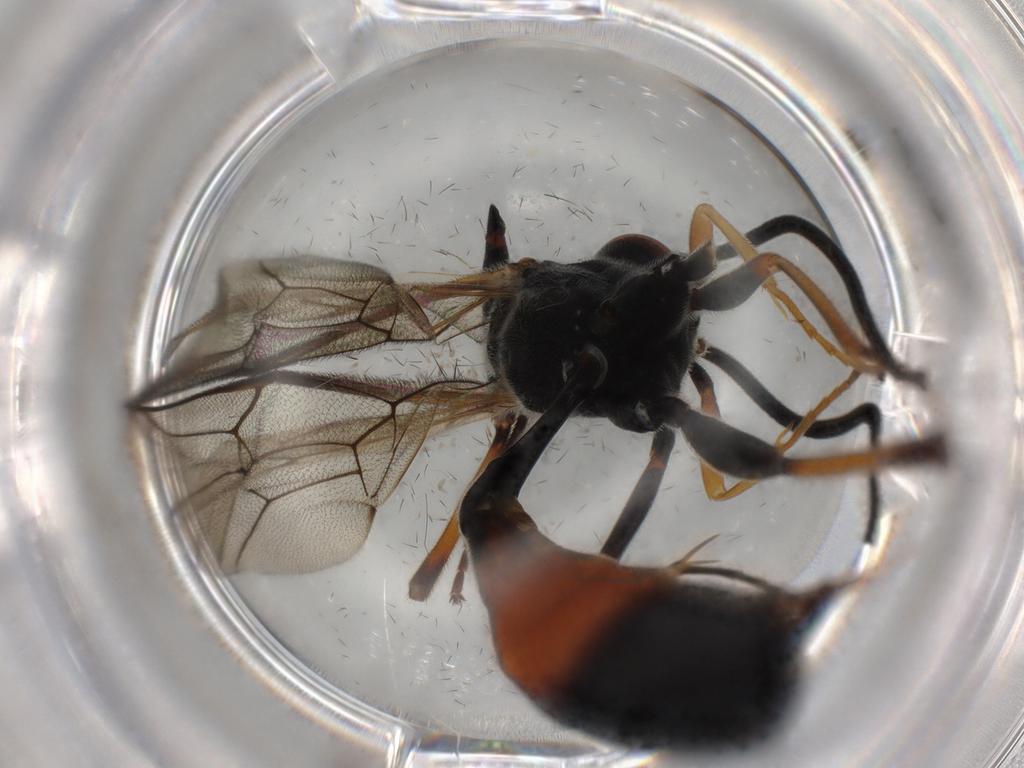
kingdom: Animalia
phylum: Arthropoda
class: Insecta
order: Hymenoptera
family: Ichneumonidae
